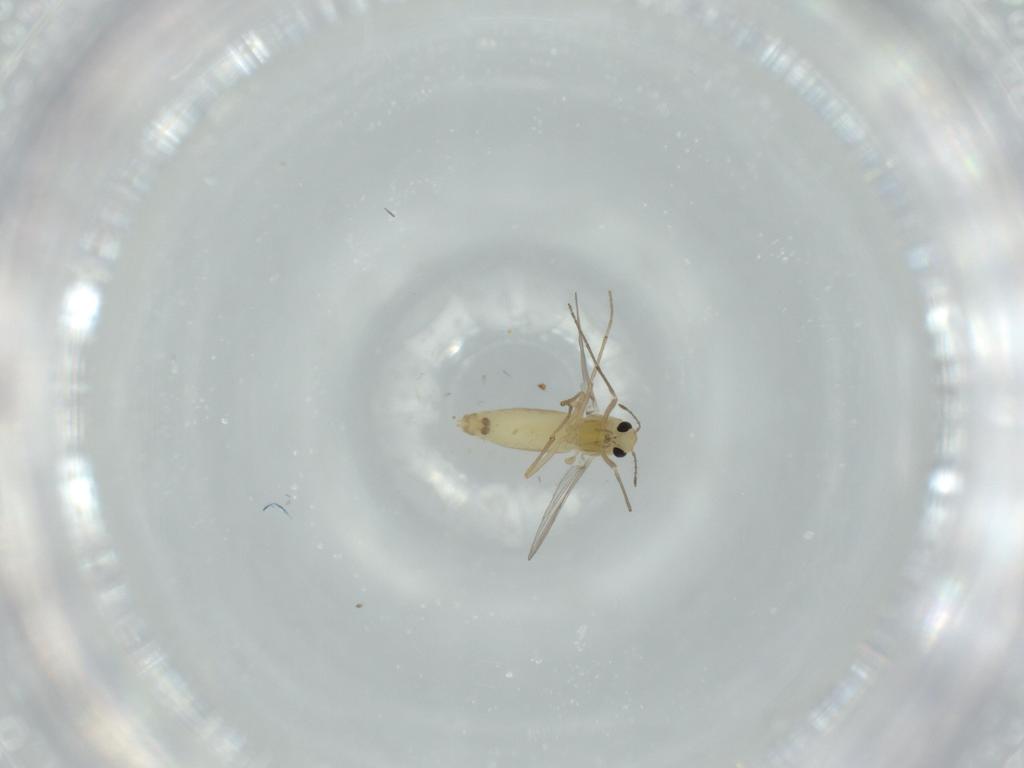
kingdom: Animalia
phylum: Arthropoda
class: Insecta
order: Diptera
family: Chironomidae
